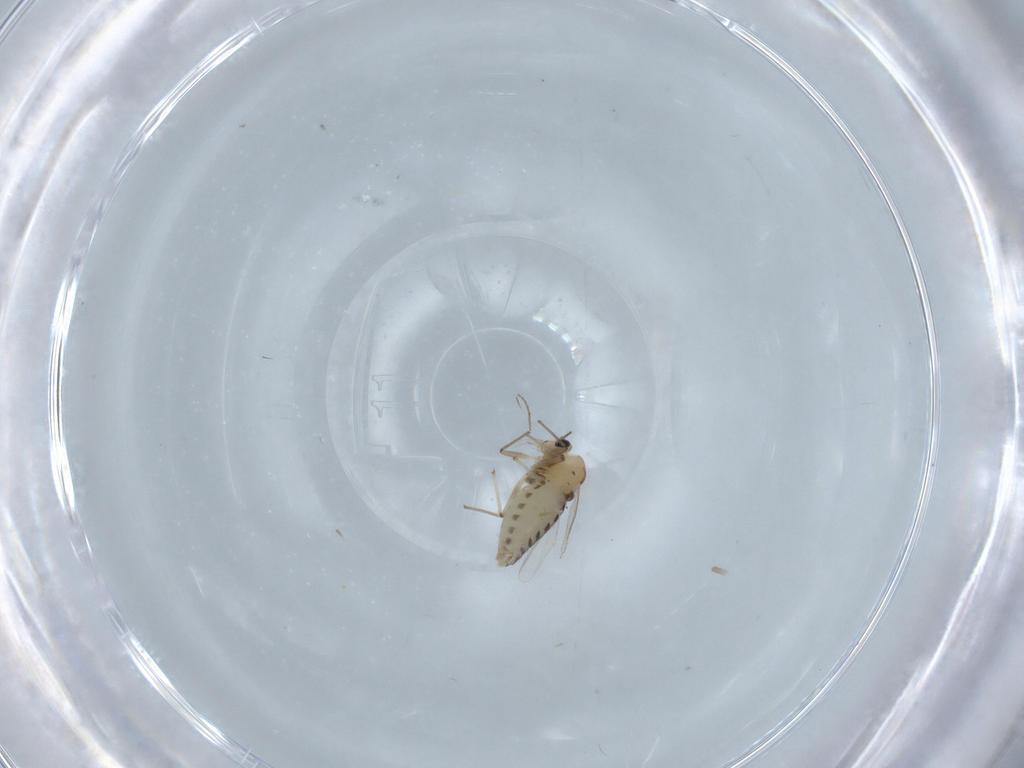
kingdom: Animalia
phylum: Arthropoda
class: Insecta
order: Diptera
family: Chironomidae
